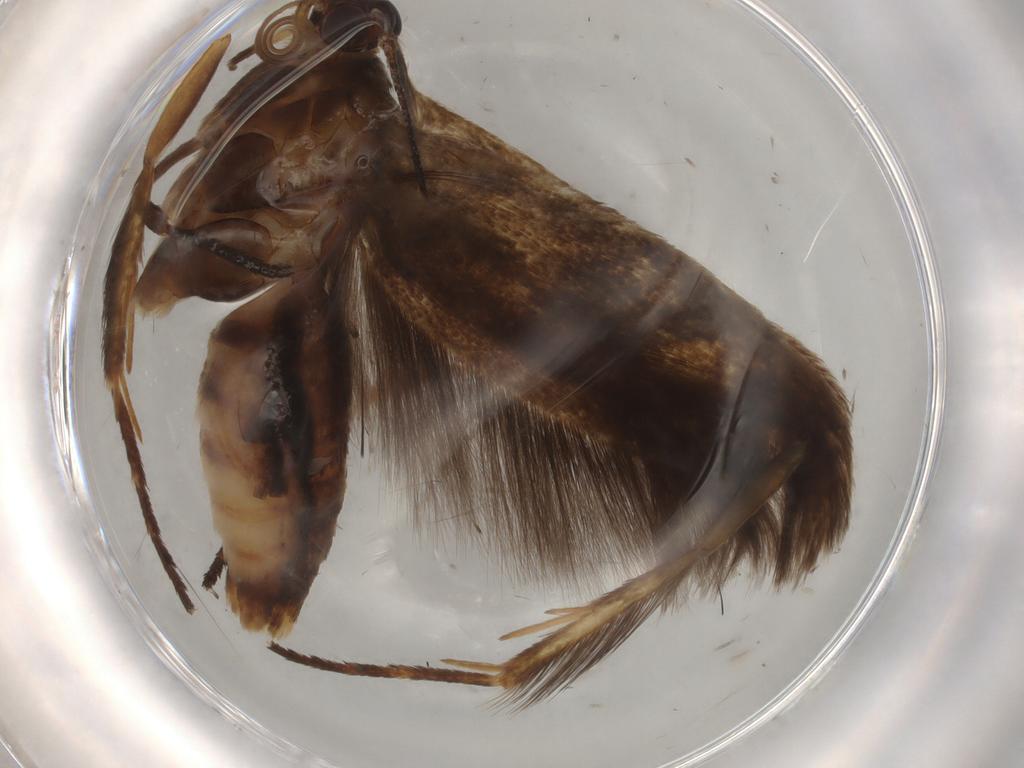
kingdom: Animalia
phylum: Arthropoda
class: Insecta
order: Lepidoptera
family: Scythrididae
